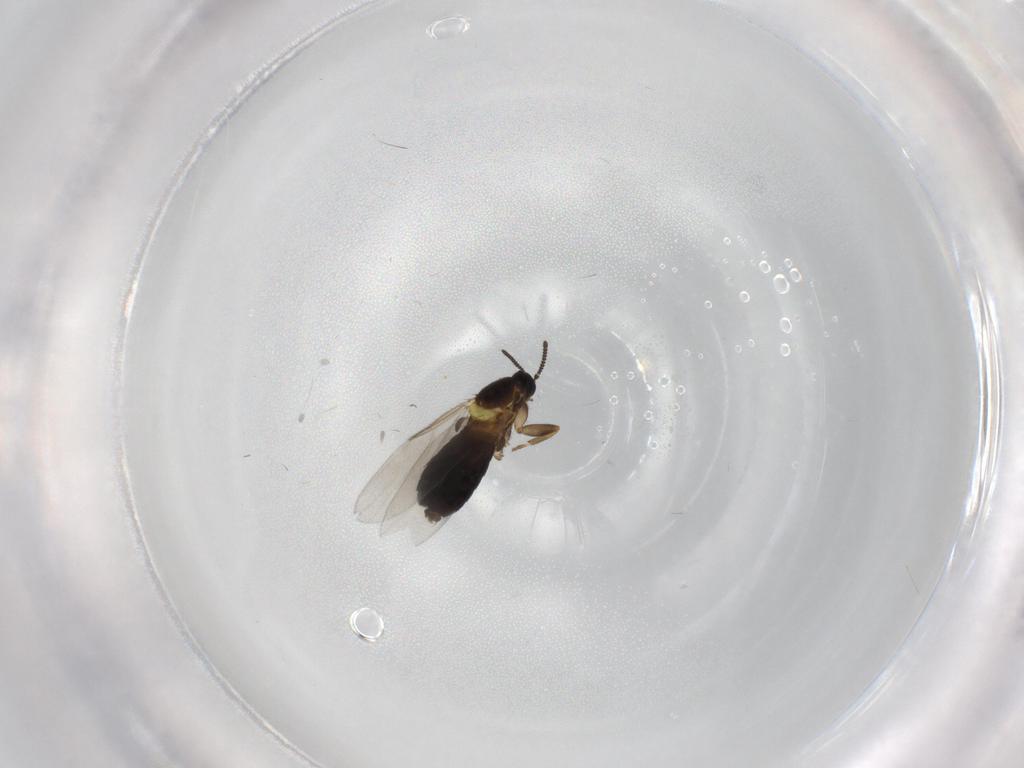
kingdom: Animalia
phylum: Arthropoda
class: Insecta
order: Diptera
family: Scatopsidae
